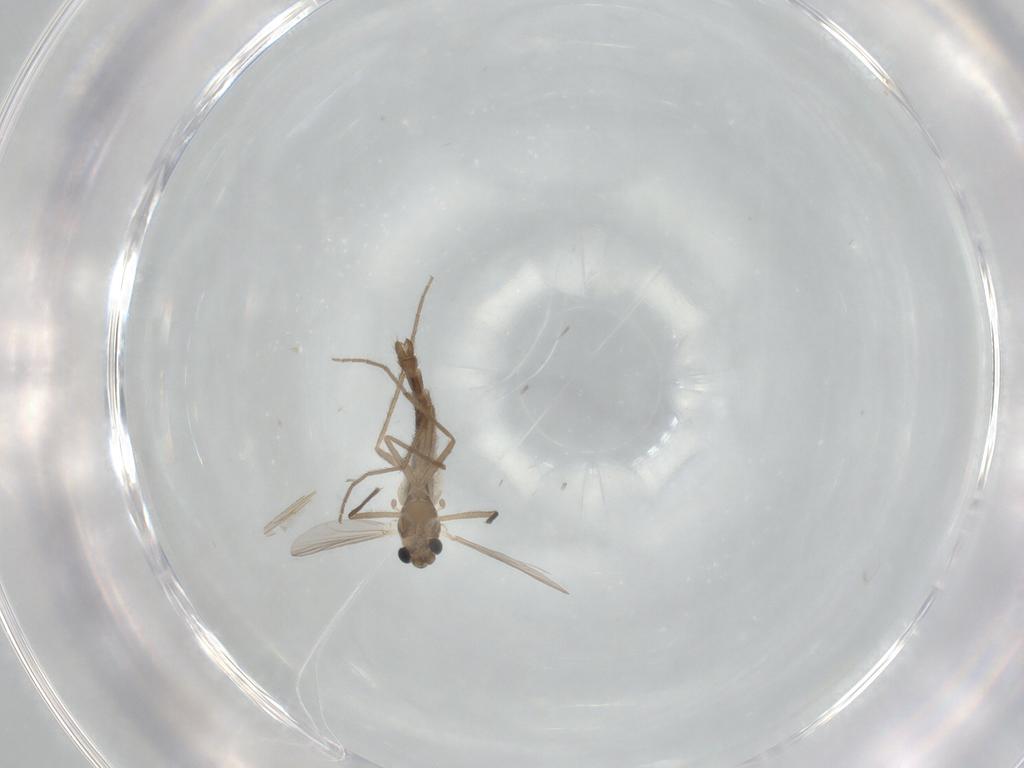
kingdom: Animalia
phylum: Arthropoda
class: Insecta
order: Diptera
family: Chironomidae
